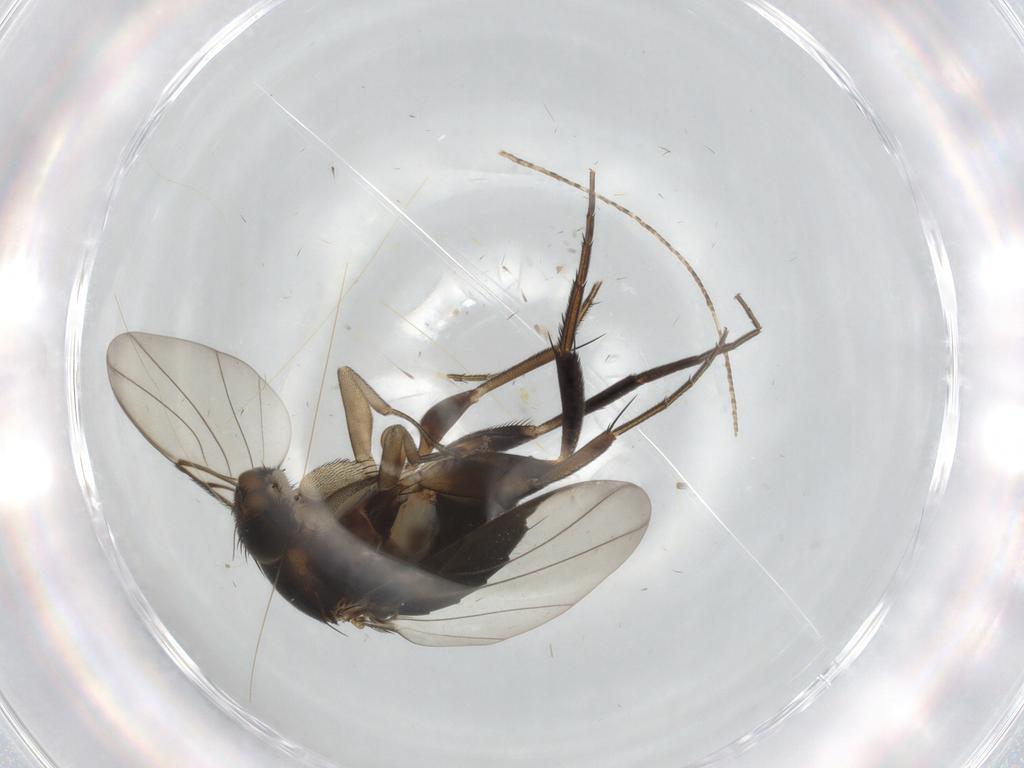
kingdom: Animalia
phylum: Arthropoda
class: Insecta
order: Diptera
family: Phoridae
